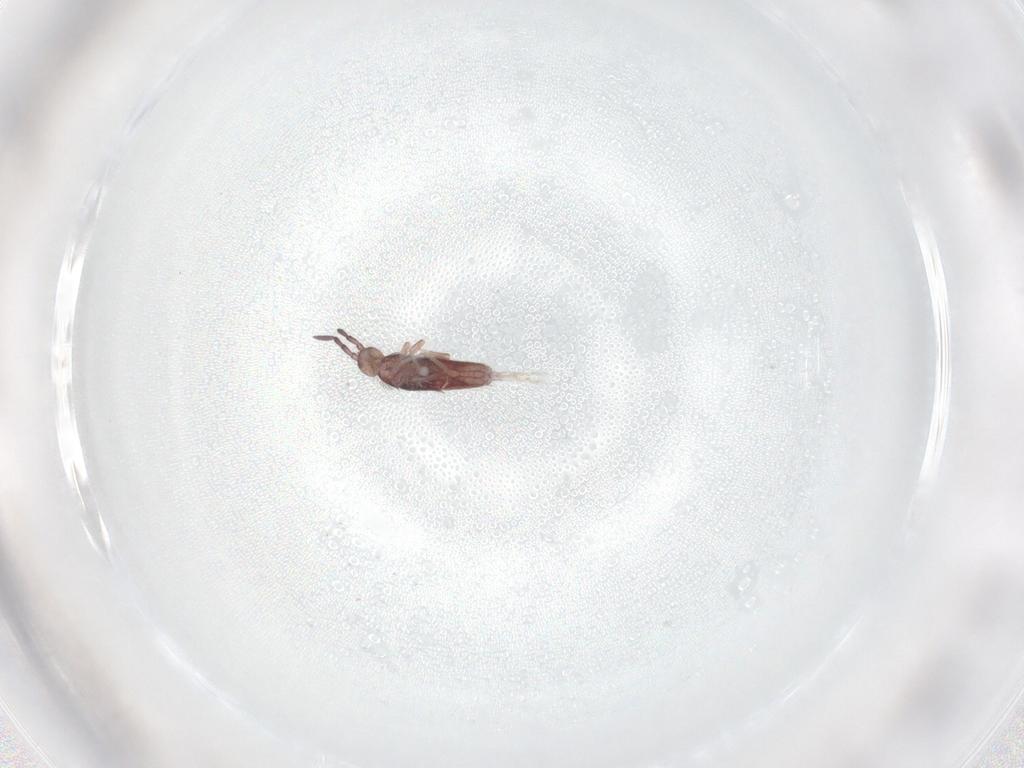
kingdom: Animalia
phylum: Arthropoda
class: Collembola
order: Entomobryomorpha
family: Entomobryidae
